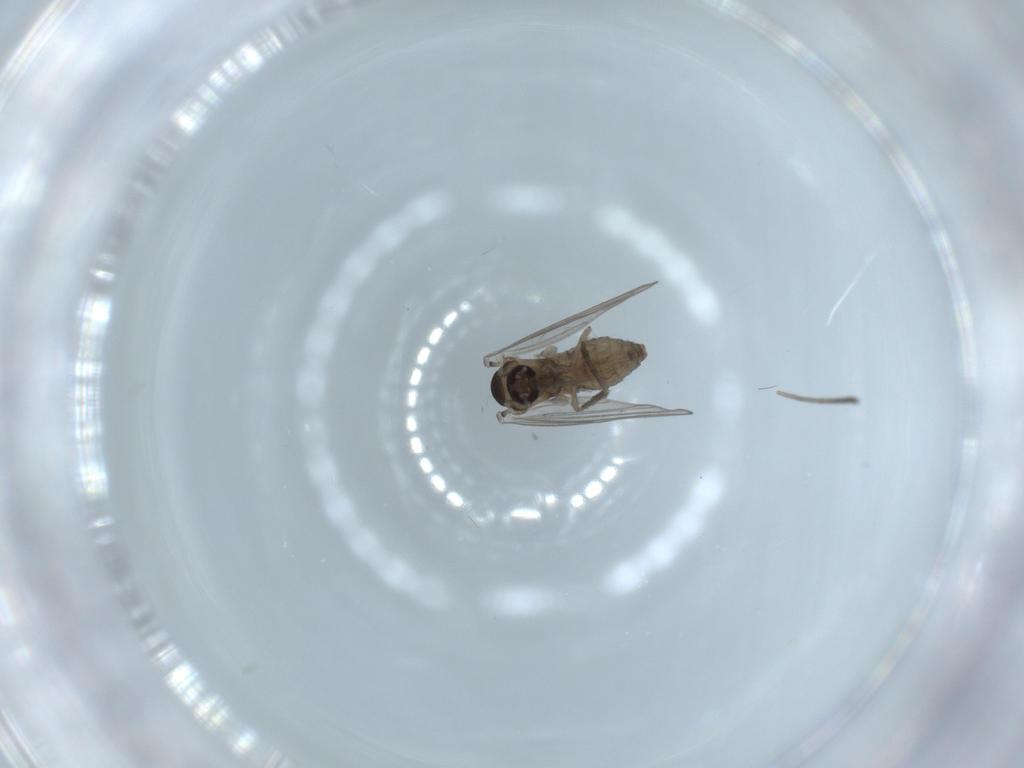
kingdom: Animalia
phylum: Arthropoda
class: Insecta
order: Diptera
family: Psychodidae
